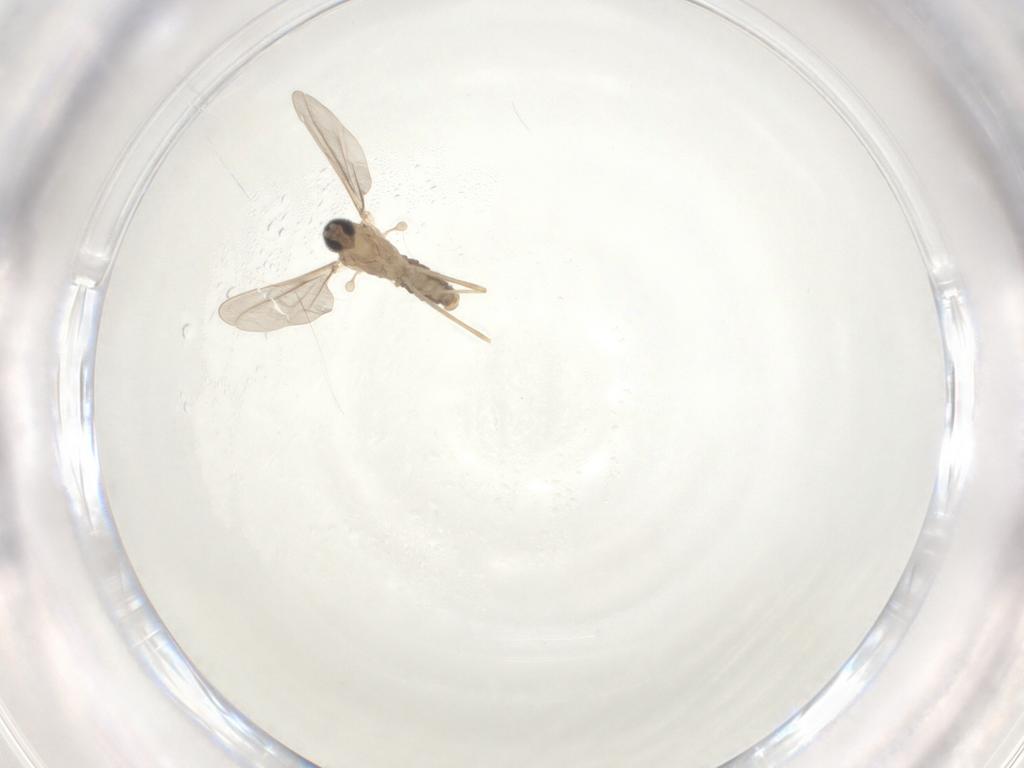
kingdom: Animalia
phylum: Arthropoda
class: Insecta
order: Diptera
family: Cecidomyiidae
